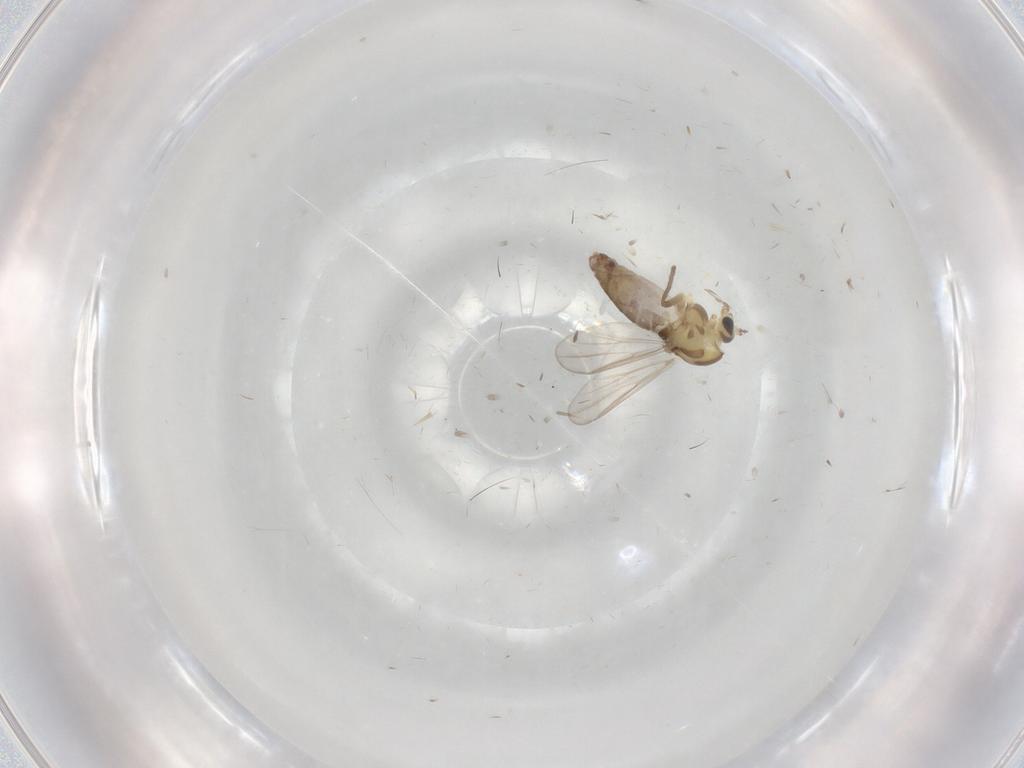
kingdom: Animalia
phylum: Arthropoda
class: Insecta
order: Diptera
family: Chironomidae
